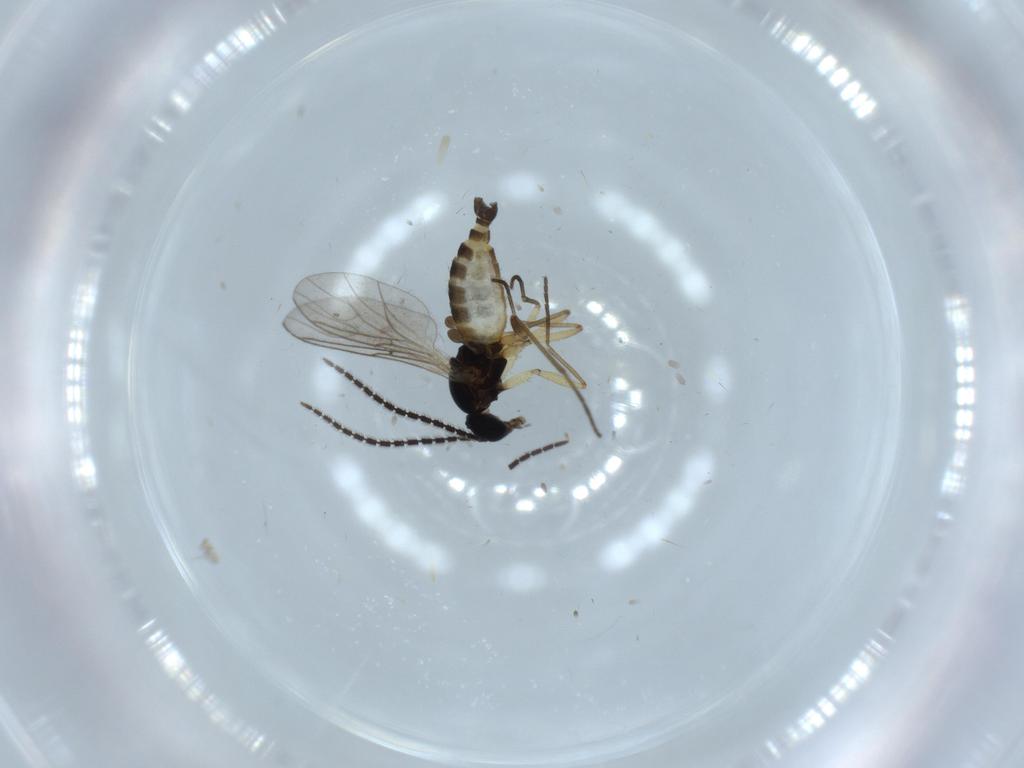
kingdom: Animalia
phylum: Arthropoda
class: Insecta
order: Diptera
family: Sciaridae
